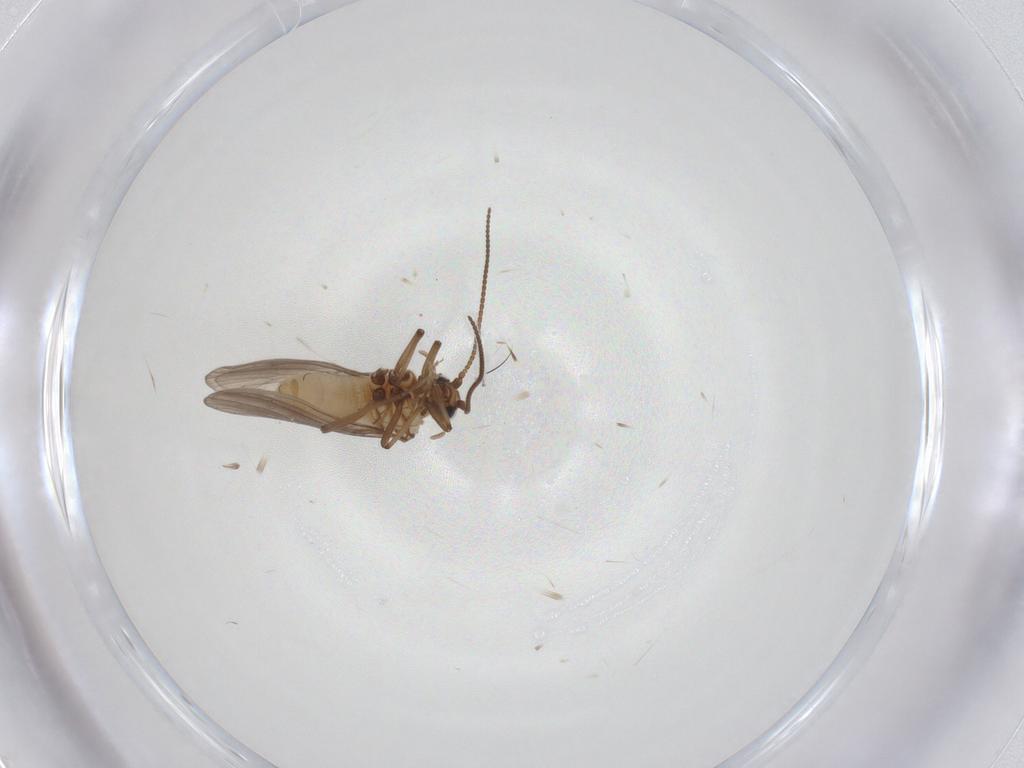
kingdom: Animalia
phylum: Arthropoda
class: Insecta
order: Neuroptera
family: Coniopterygidae
